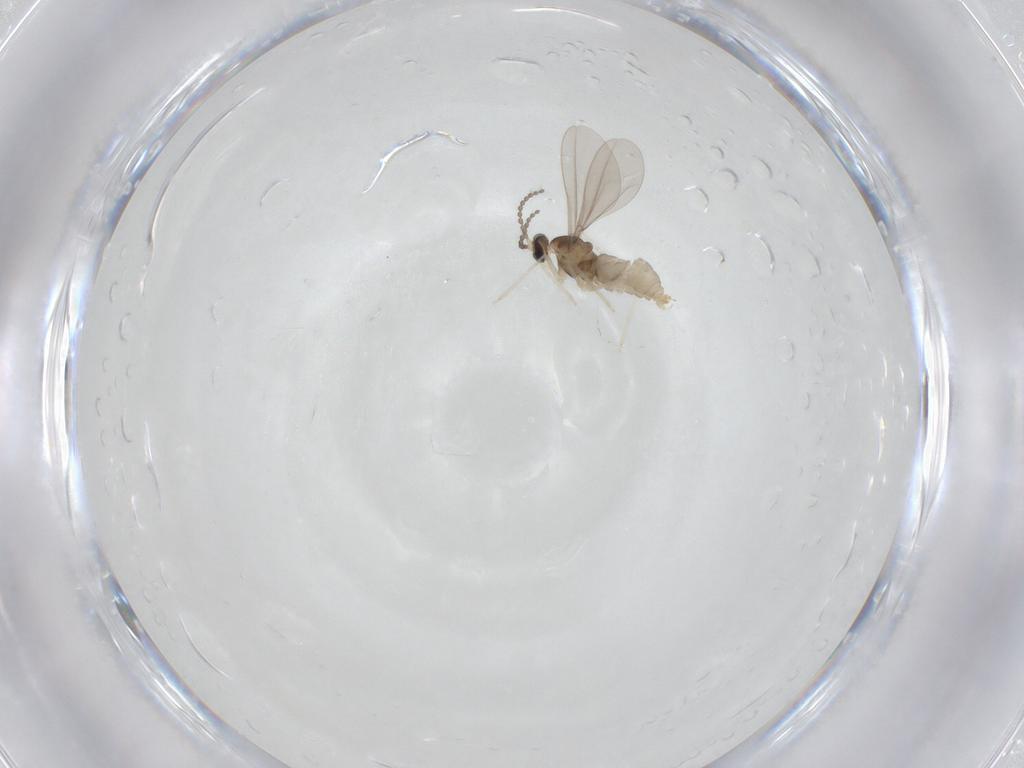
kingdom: Animalia
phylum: Arthropoda
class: Insecta
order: Diptera
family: Cecidomyiidae
